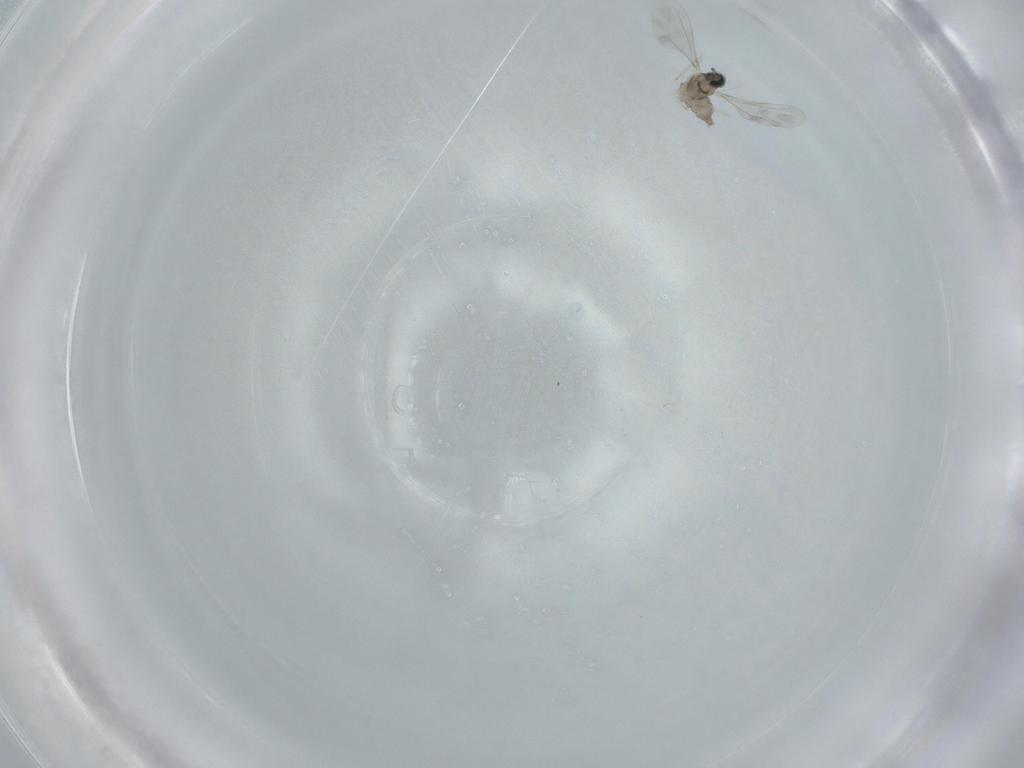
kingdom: Animalia
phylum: Arthropoda
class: Insecta
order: Diptera
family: Cecidomyiidae
